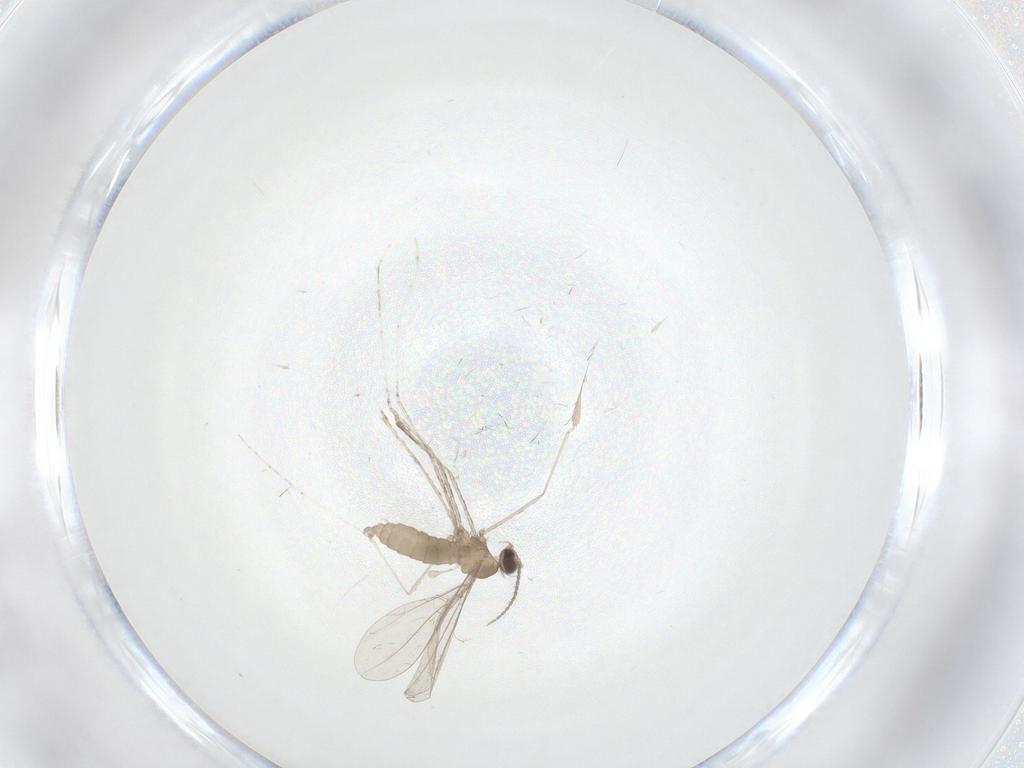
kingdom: Animalia
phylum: Arthropoda
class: Insecta
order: Diptera
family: Cecidomyiidae
